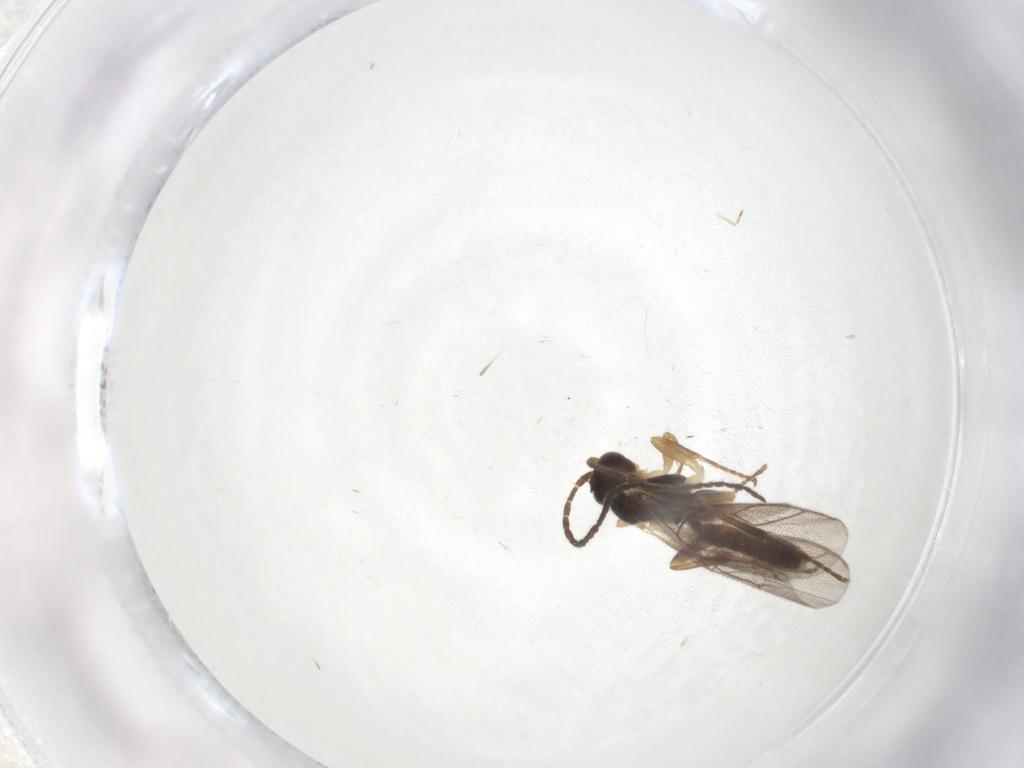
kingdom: Animalia
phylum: Arthropoda
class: Insecta
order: Hymenoptera
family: Ichneumonidae
